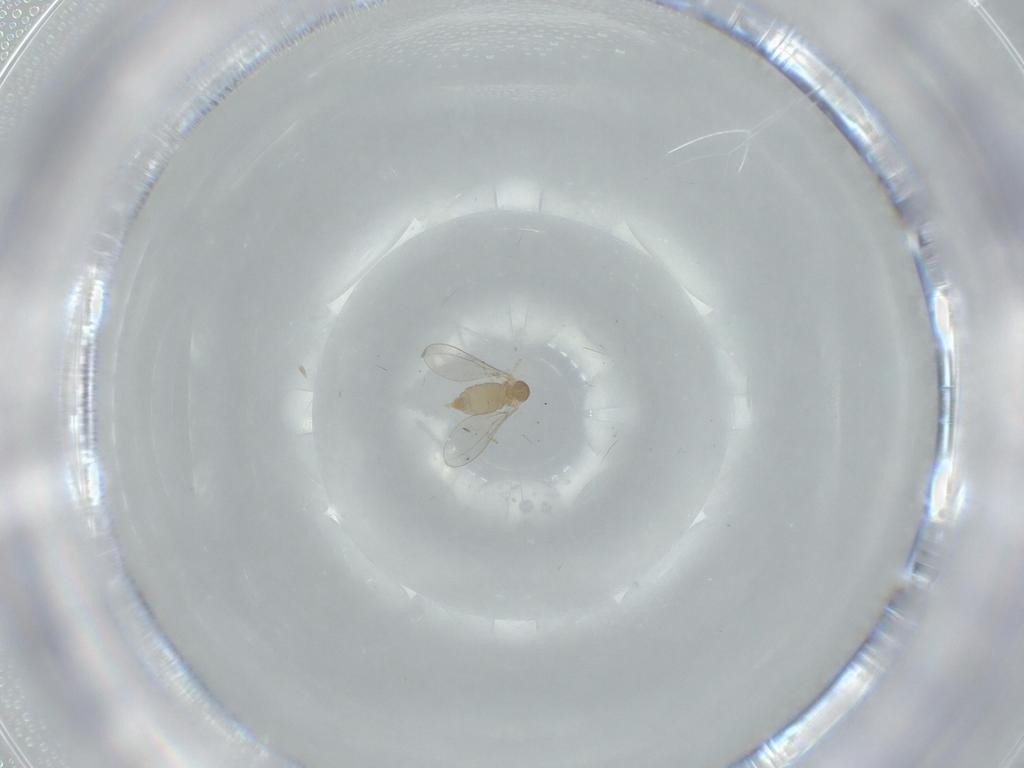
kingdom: Animalia
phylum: Arthropoda
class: Insecta
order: Diptera
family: Cecidomyiidae
